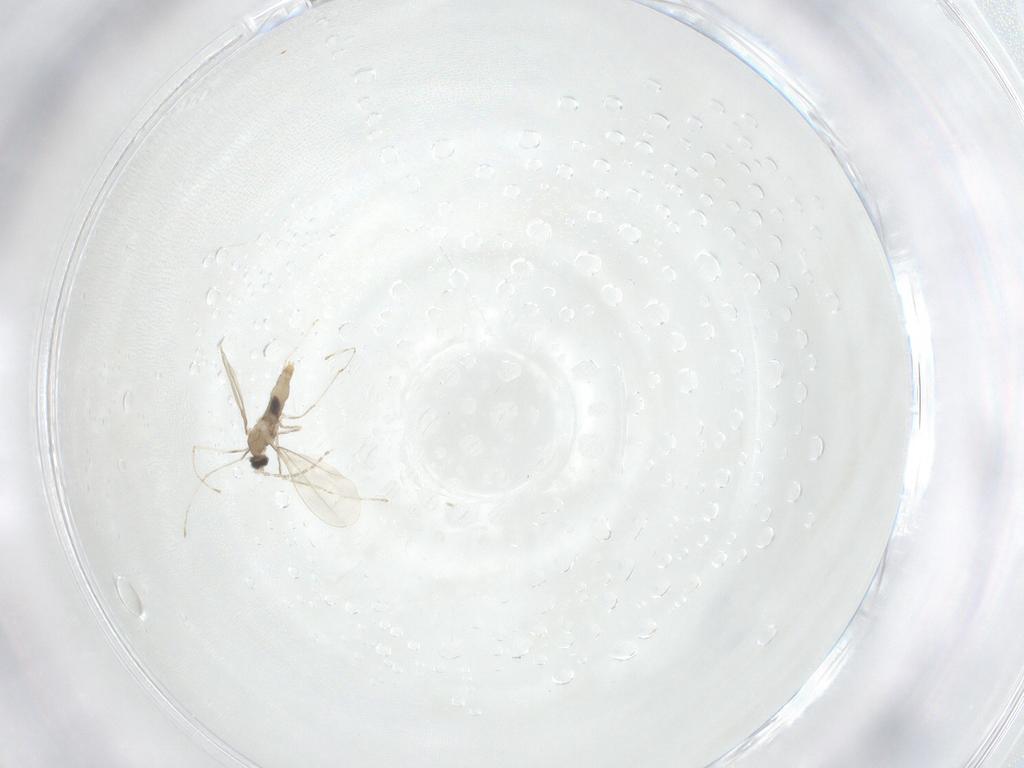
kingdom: Animalia
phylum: Arthropoda
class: Insecta
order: Diptera
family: Cecidomyiidae
